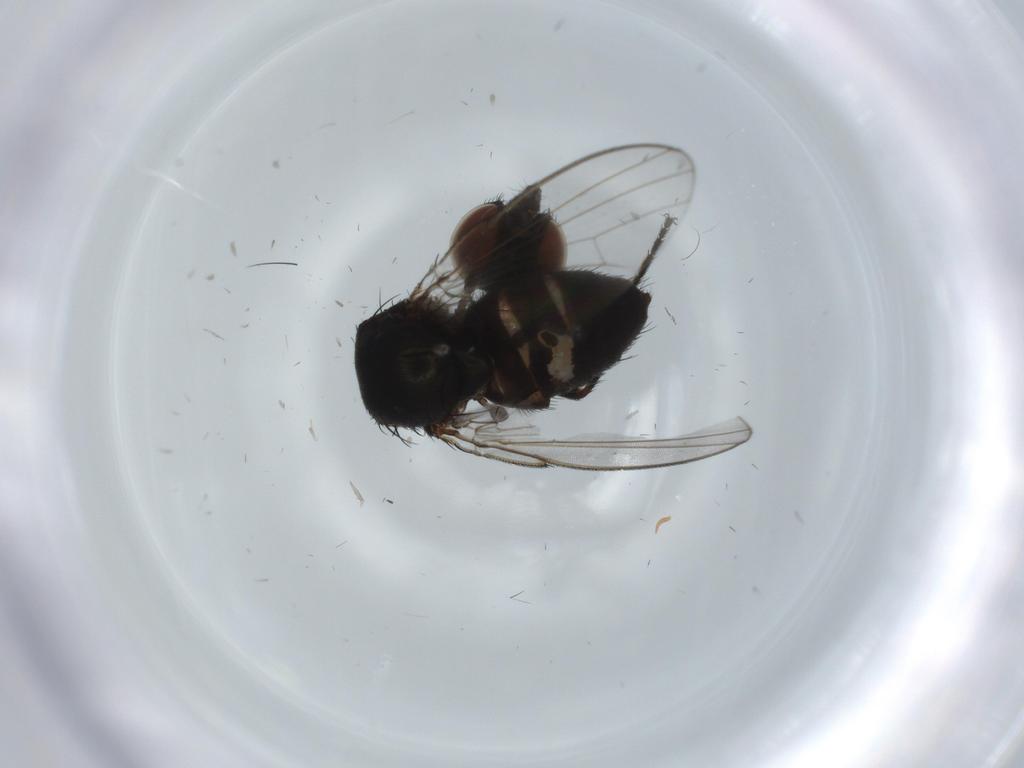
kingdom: Animalia
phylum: Arthropoda
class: Insecta
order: Diptera
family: Milichiidae
